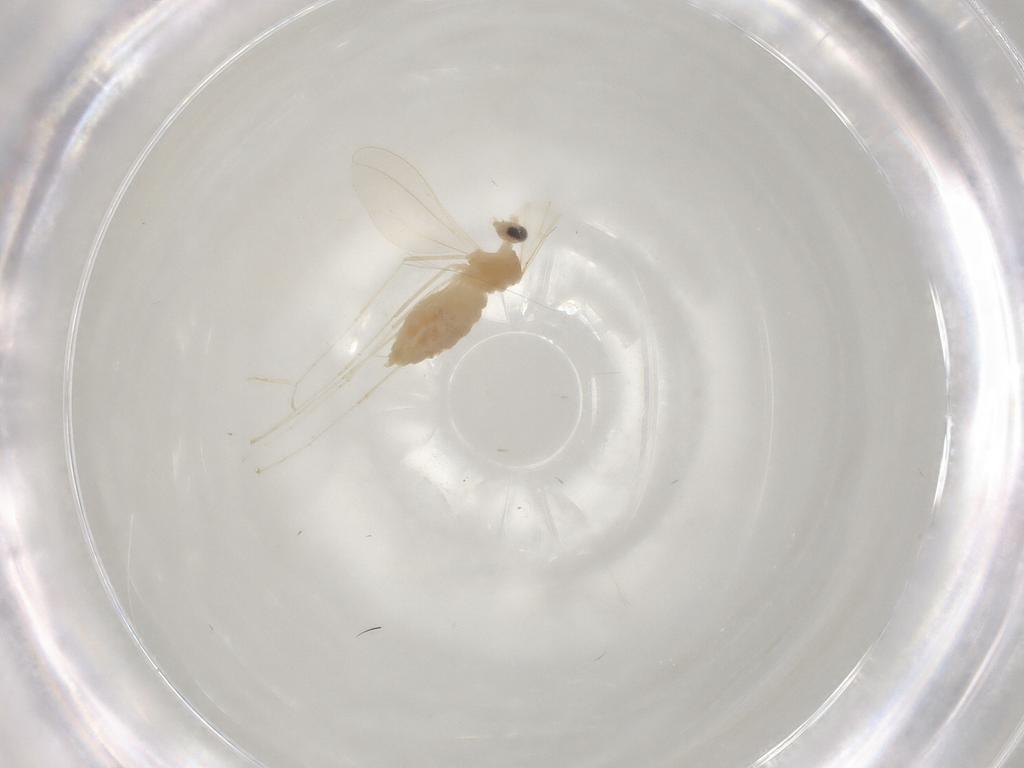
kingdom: Animalia
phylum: Arthropoda
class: Insecta
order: Diptera
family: Cecidomyiidae
